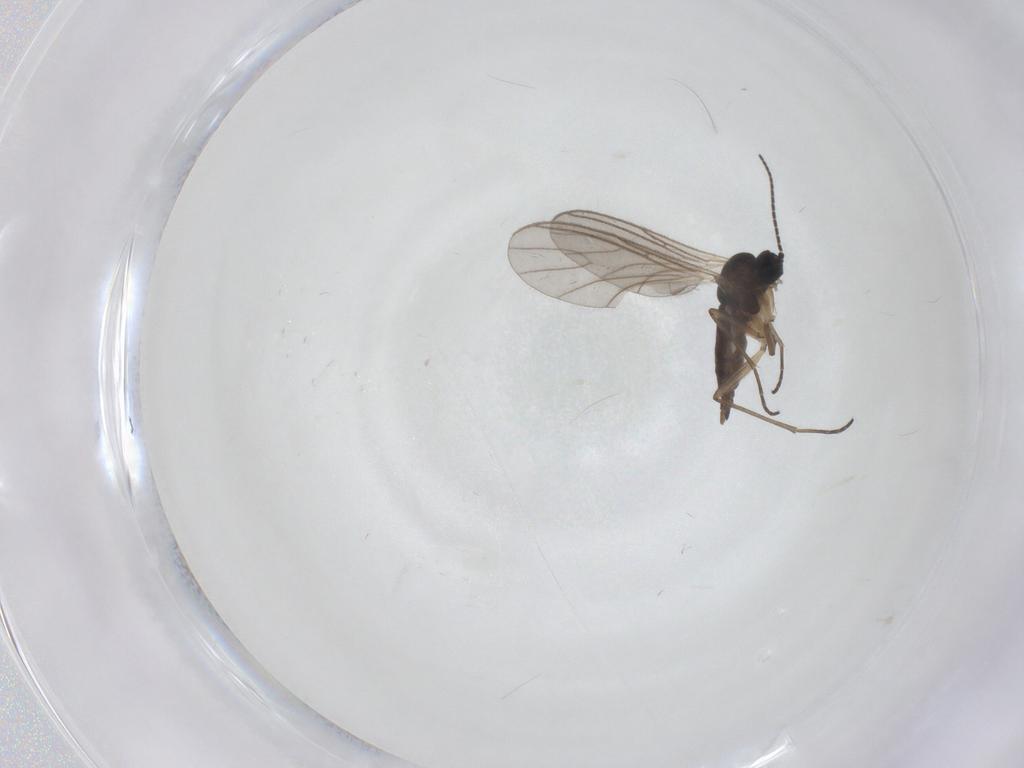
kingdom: Animalia
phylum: Arthropoda
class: Insecta
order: Diptera
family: Sciaridae
